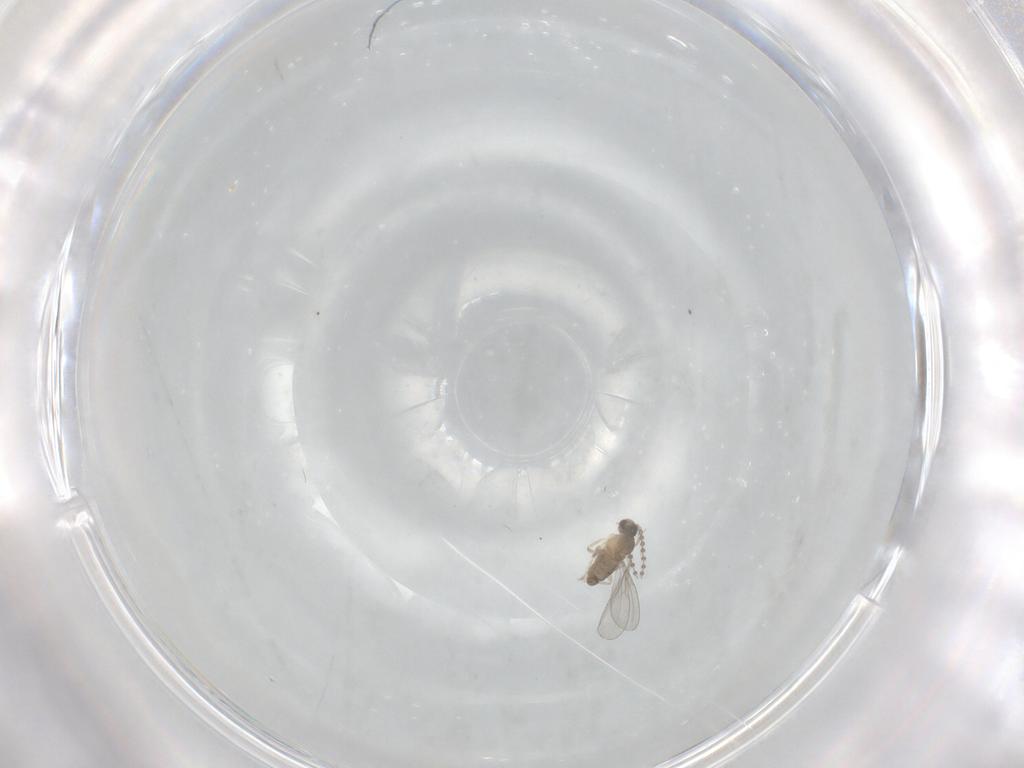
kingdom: Animalia
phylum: Arthropoda
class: Insecta
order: Diptera
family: Cecidomyiidae
